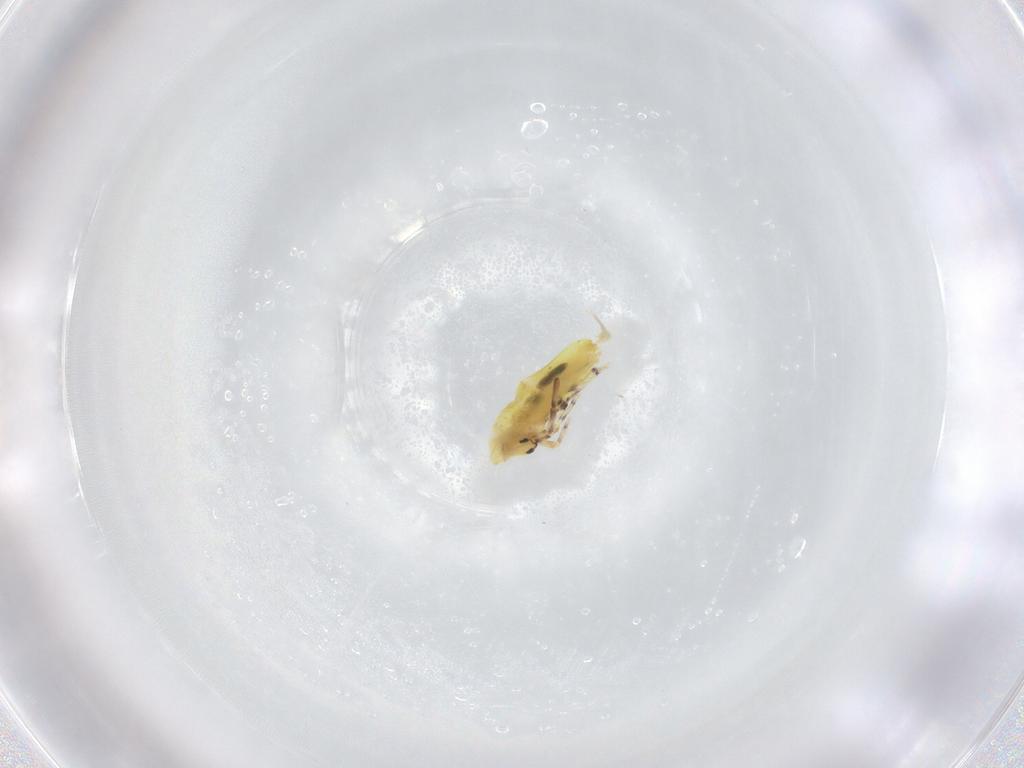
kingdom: Animalia
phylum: Arthropoda
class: Collembola
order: Entomobryomorpha
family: Entomobryidae
